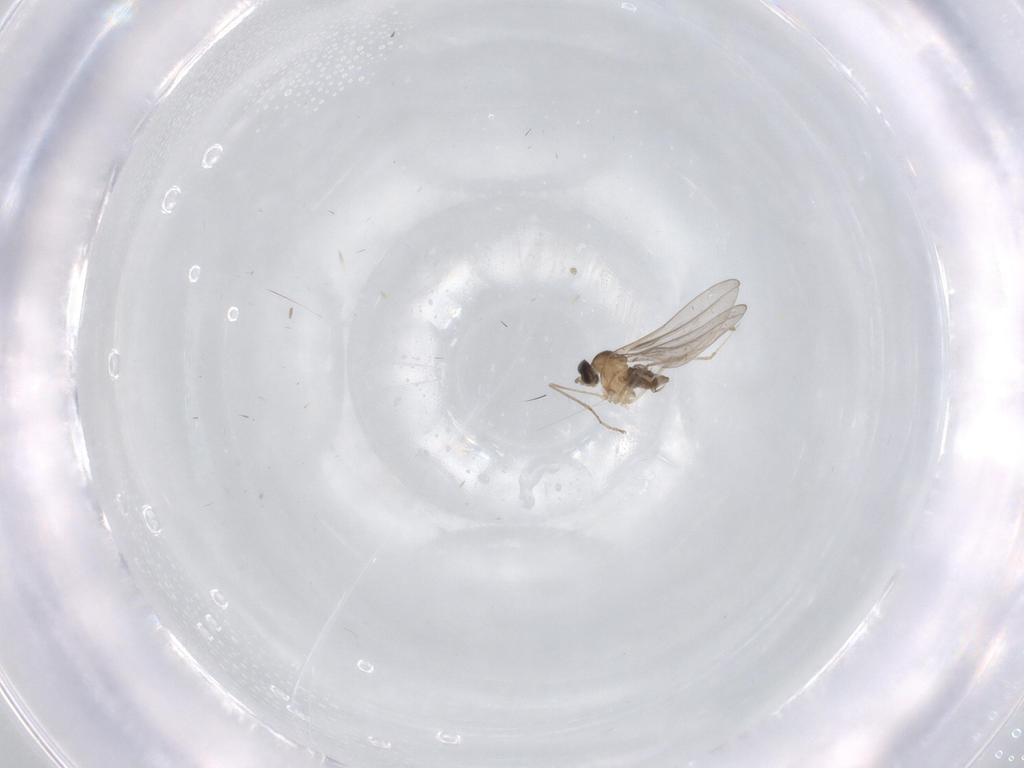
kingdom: Animalia
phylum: Arthropoda
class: Insecta
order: Diptera
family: Cecidomyiidae
